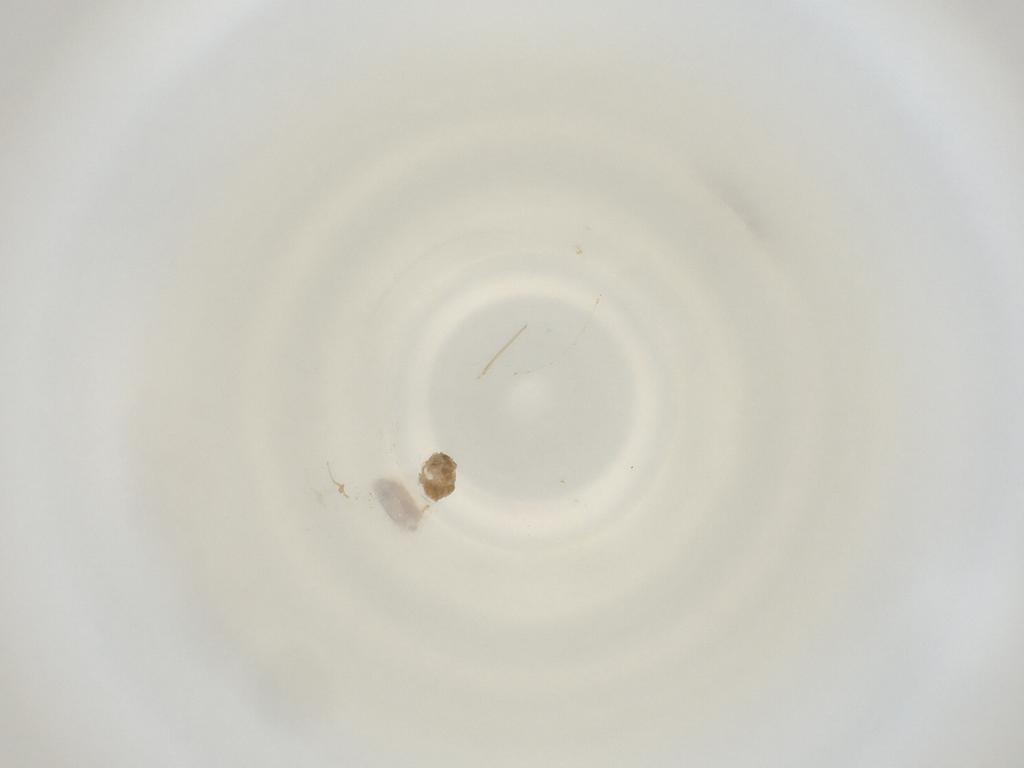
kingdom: Animalia
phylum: Arthropoda
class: Insecta
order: Diptera
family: Cecidomyiidae
